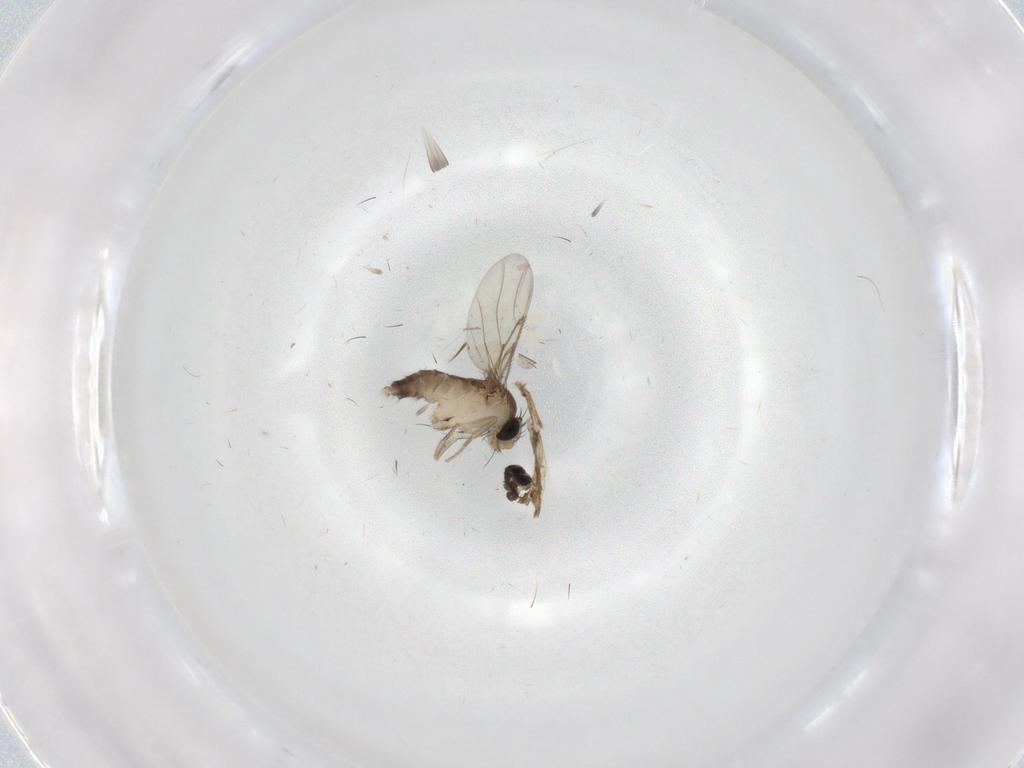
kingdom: Animalia
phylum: Arthropoda
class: Insecta
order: Diptera
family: Phoridae
